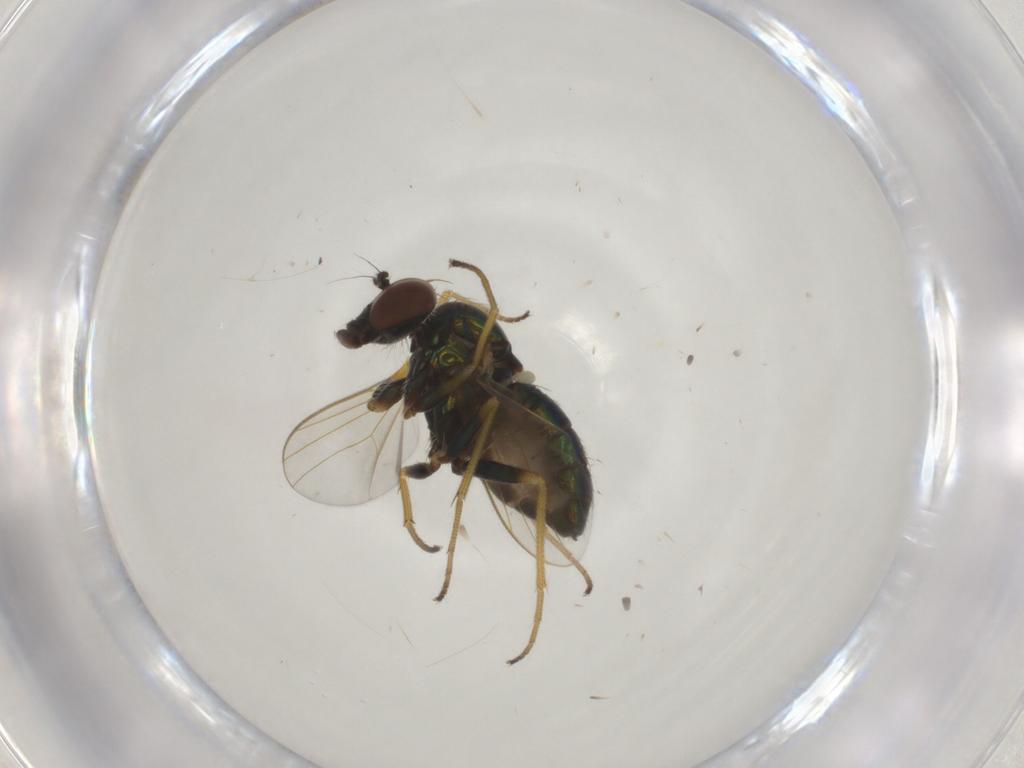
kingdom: Animalia
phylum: Arthropoda
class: Insecta
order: Diptera
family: Dolichopodidae
